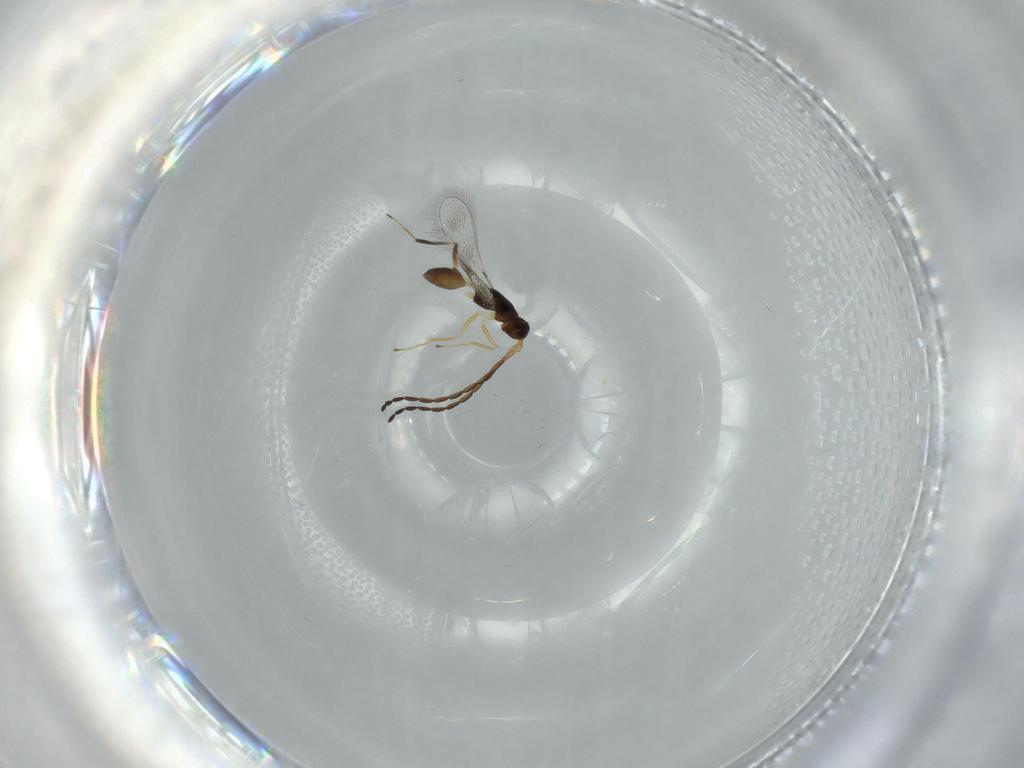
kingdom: Animalia
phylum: Arthropoda
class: Insecta
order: Hymenoptera
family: Mymaridae
